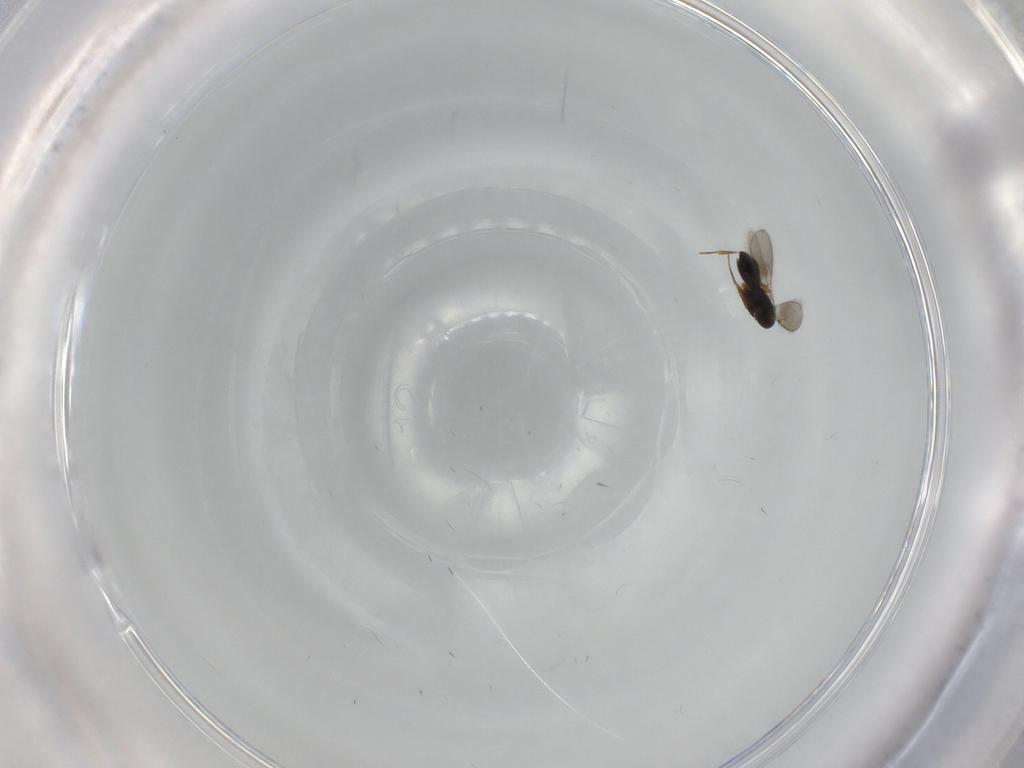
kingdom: Animalia
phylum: Arthropoda
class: Insecta
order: Hymenoptera
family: Scelionidae
